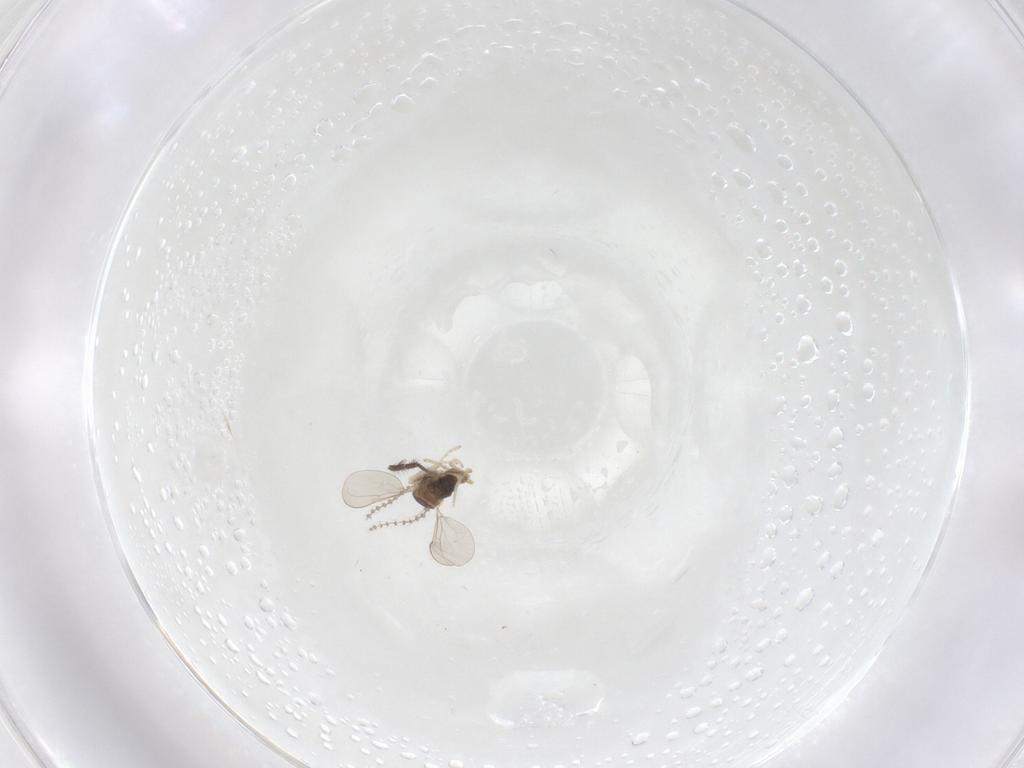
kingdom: Animalia
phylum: Arthropoda
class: Insecta
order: Diptera
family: Cecidomyiidae
